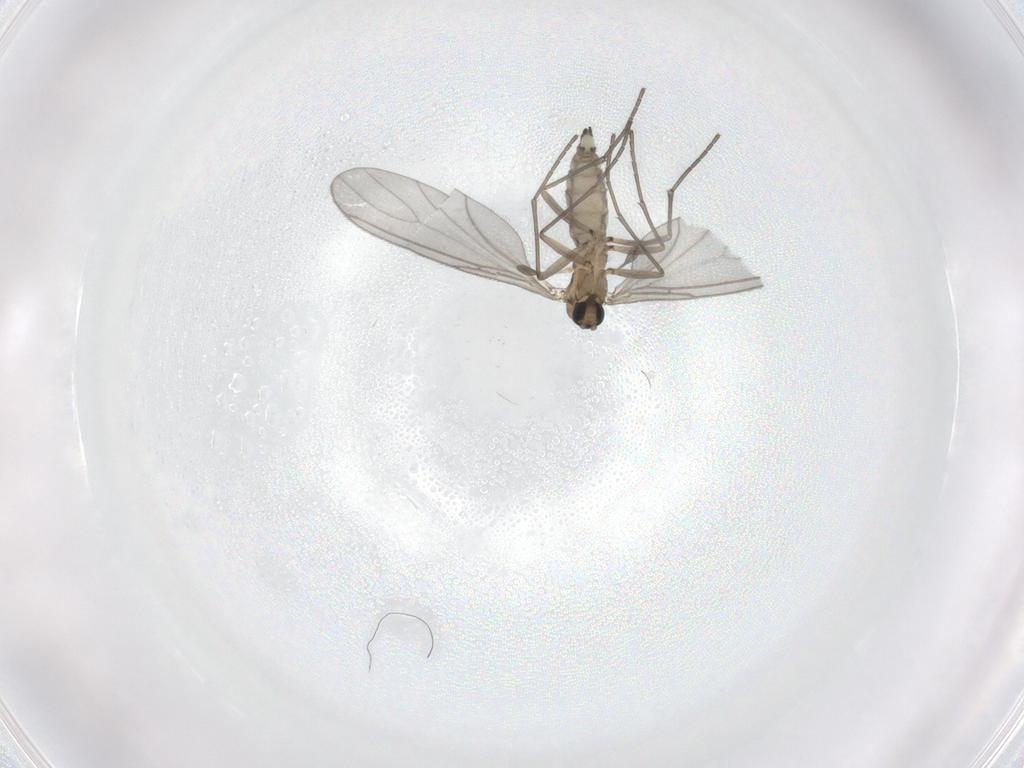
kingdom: Animalia
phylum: Arthropoda
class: Insecta
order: Diptera
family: Sciaridae
